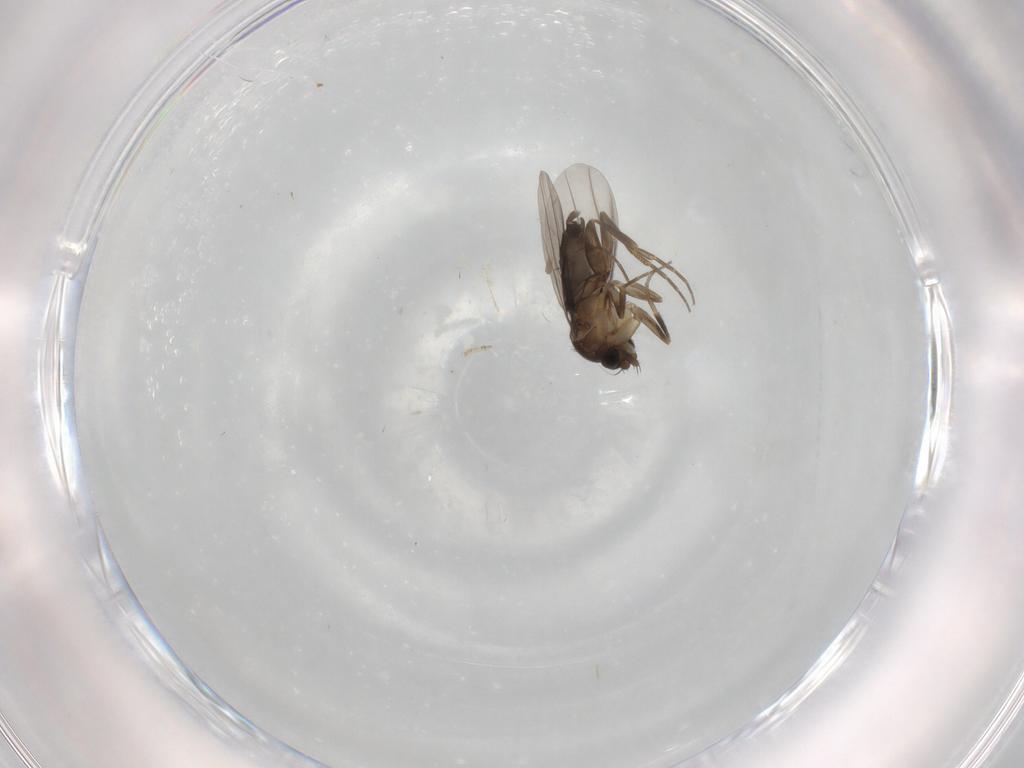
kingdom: Animalia
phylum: Arthropoda
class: Insecta
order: Diptera
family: Phoridae
